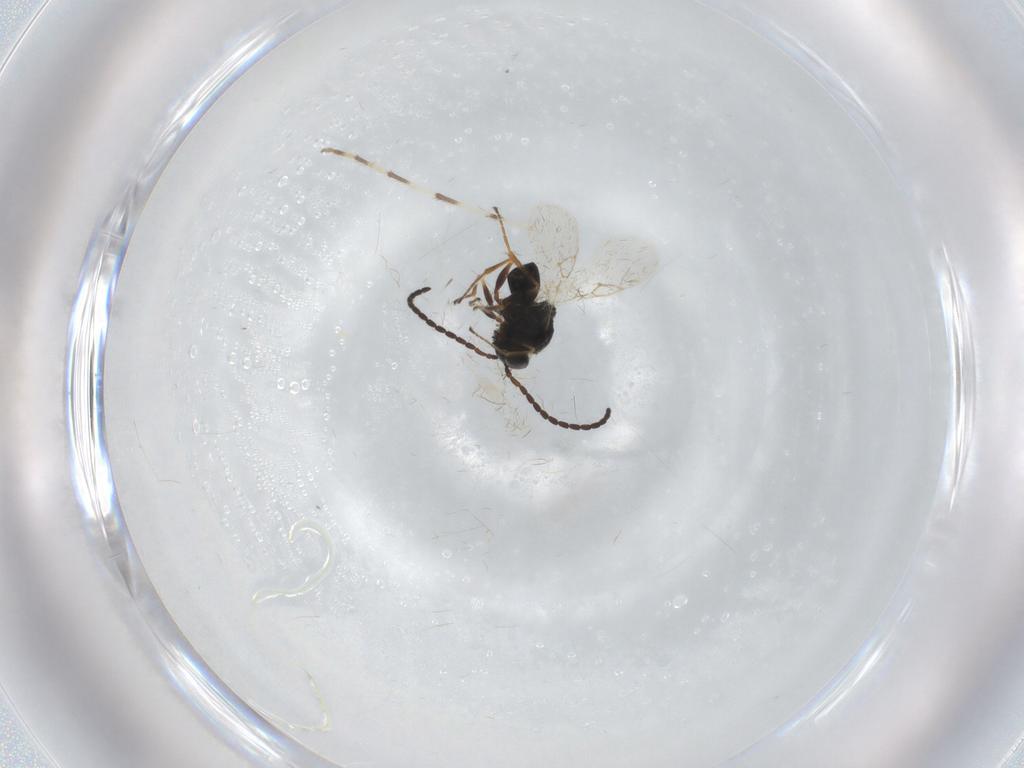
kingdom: Animalia
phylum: Arthropoda
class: Insecta
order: Hymenoptera
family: Figitidae
